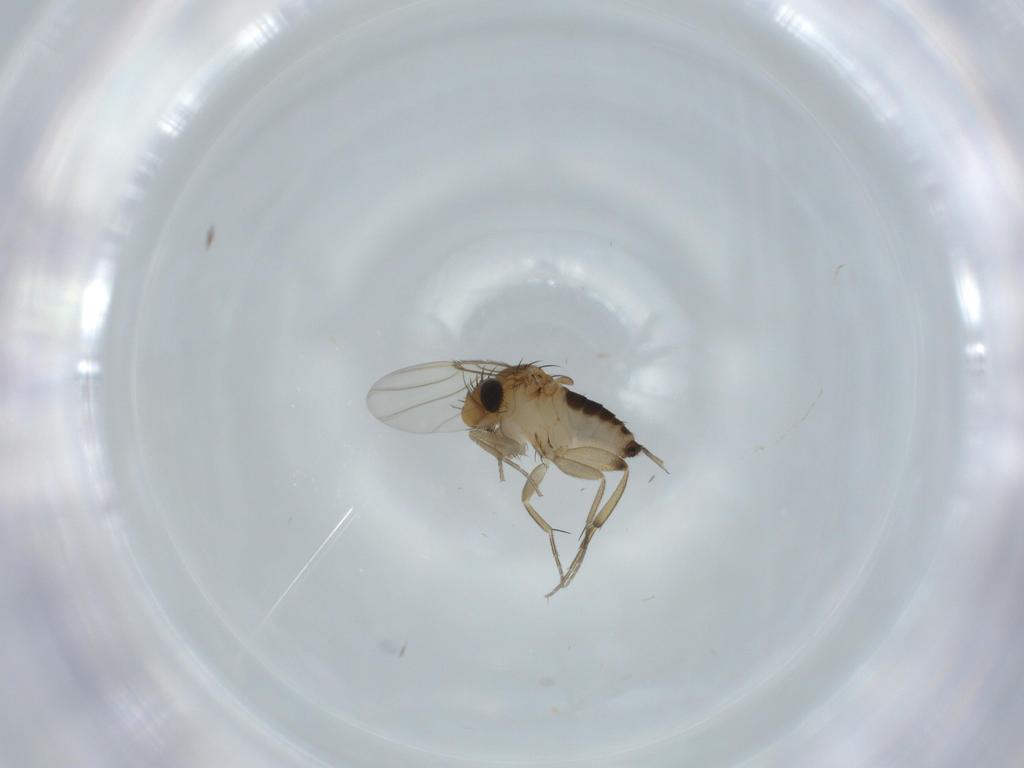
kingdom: Animalia
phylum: Arthropoda
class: Insecta
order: Diptera
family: Sciaridae
